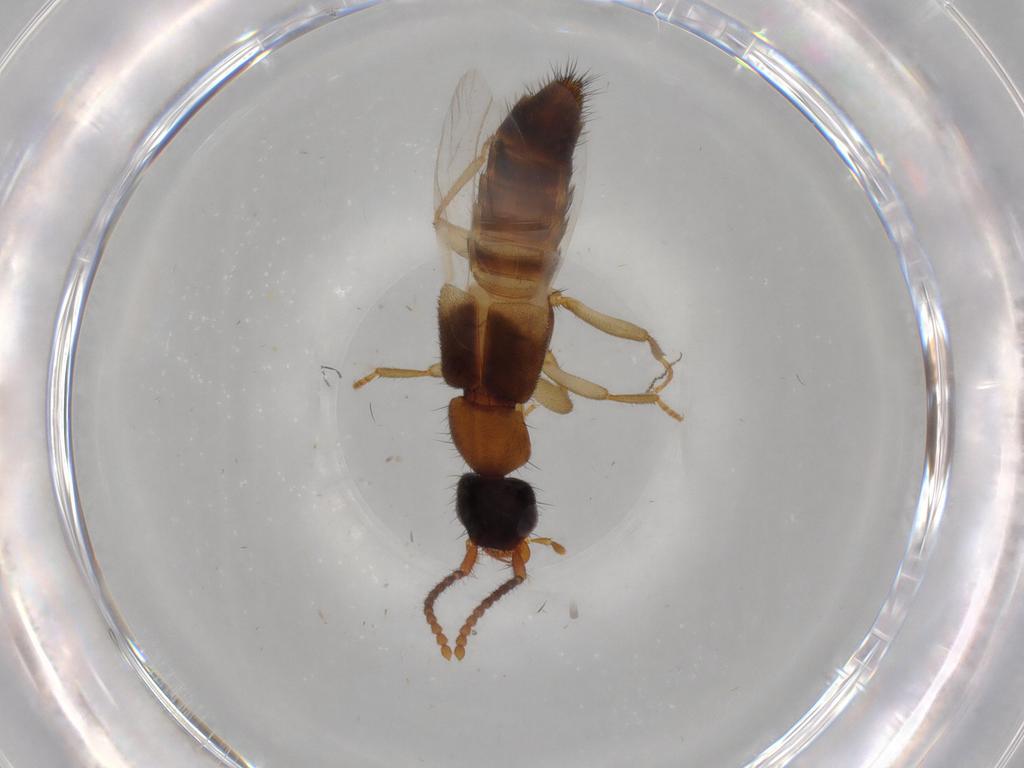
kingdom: Animalia
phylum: Arthropoda
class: Insecta
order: Coleoptera
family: Staphylinidae
